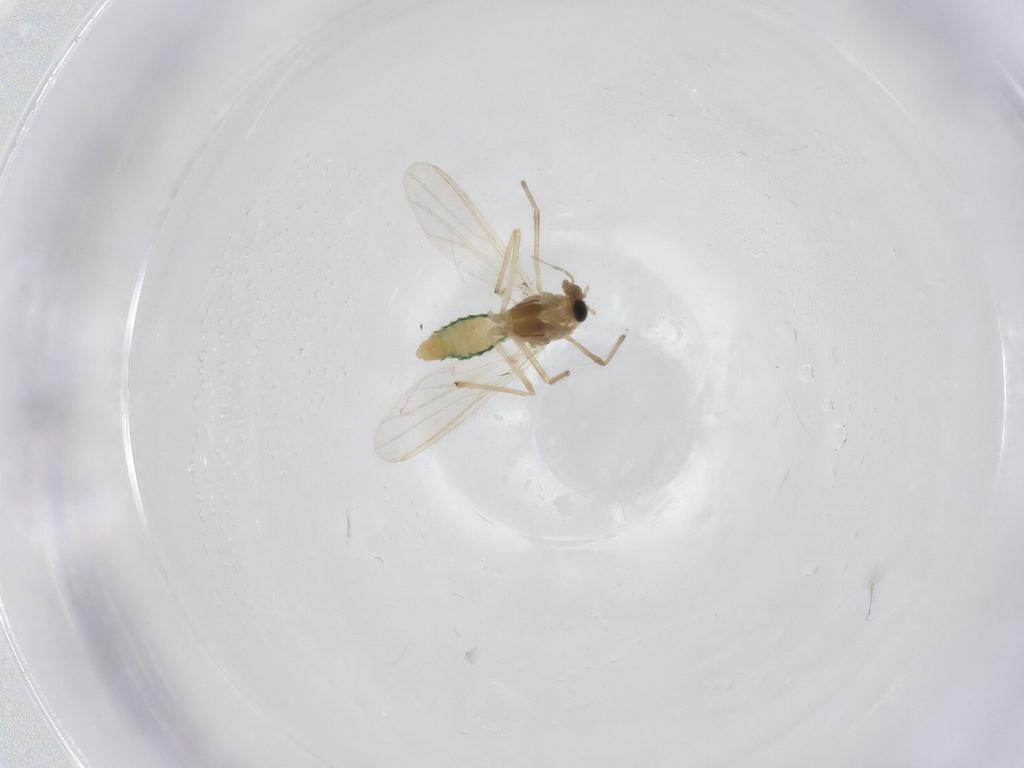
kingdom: Animalia
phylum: Arthropoda
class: Insecta
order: Diptera
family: Chironomidae
